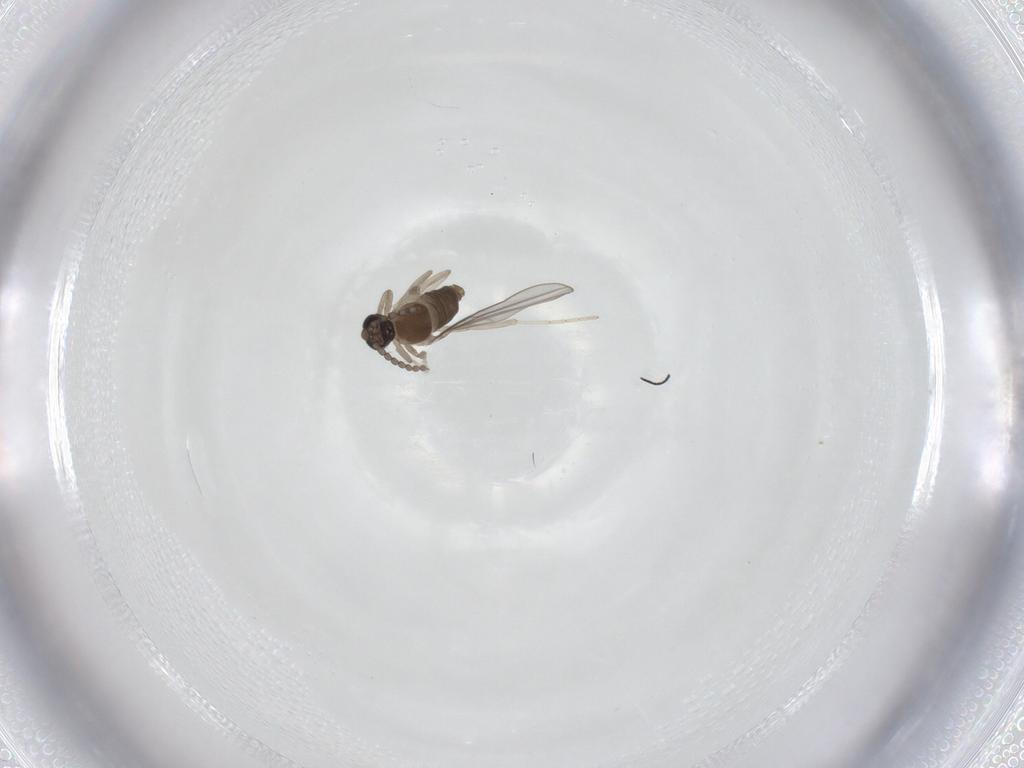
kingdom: Animalia
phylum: Arthropoda
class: Insecta
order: Diptera
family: Cecidomyiidae
